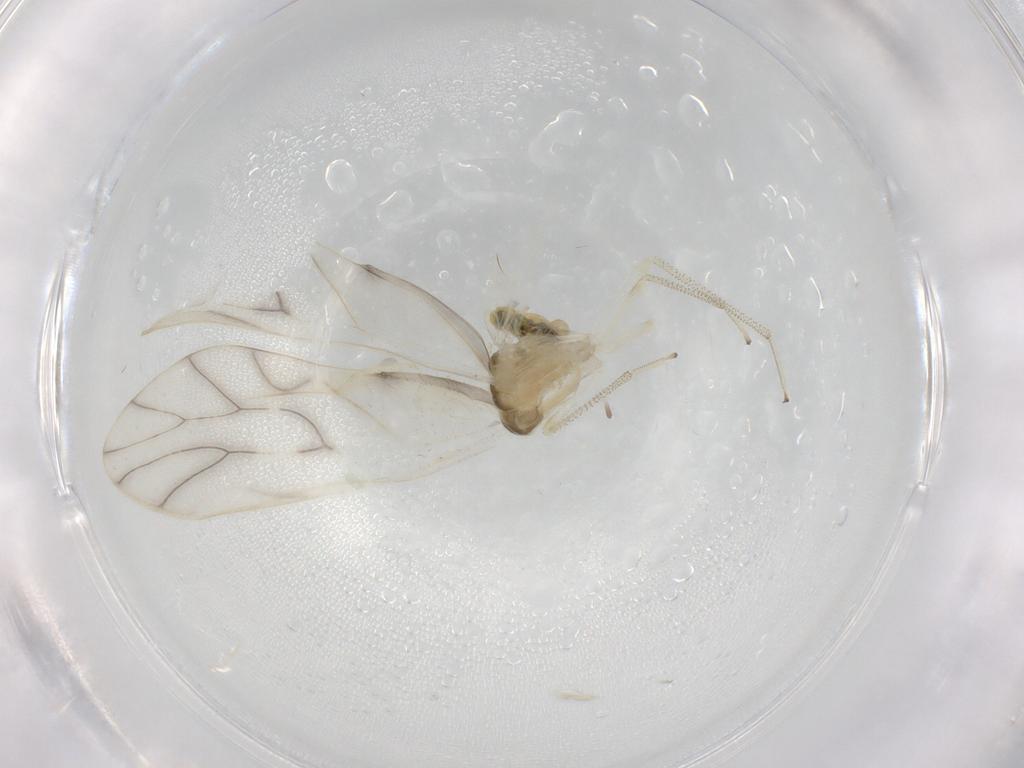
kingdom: Animalia
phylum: Arthropoda
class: Insecta
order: Psocodea
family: Caeciliusidae
